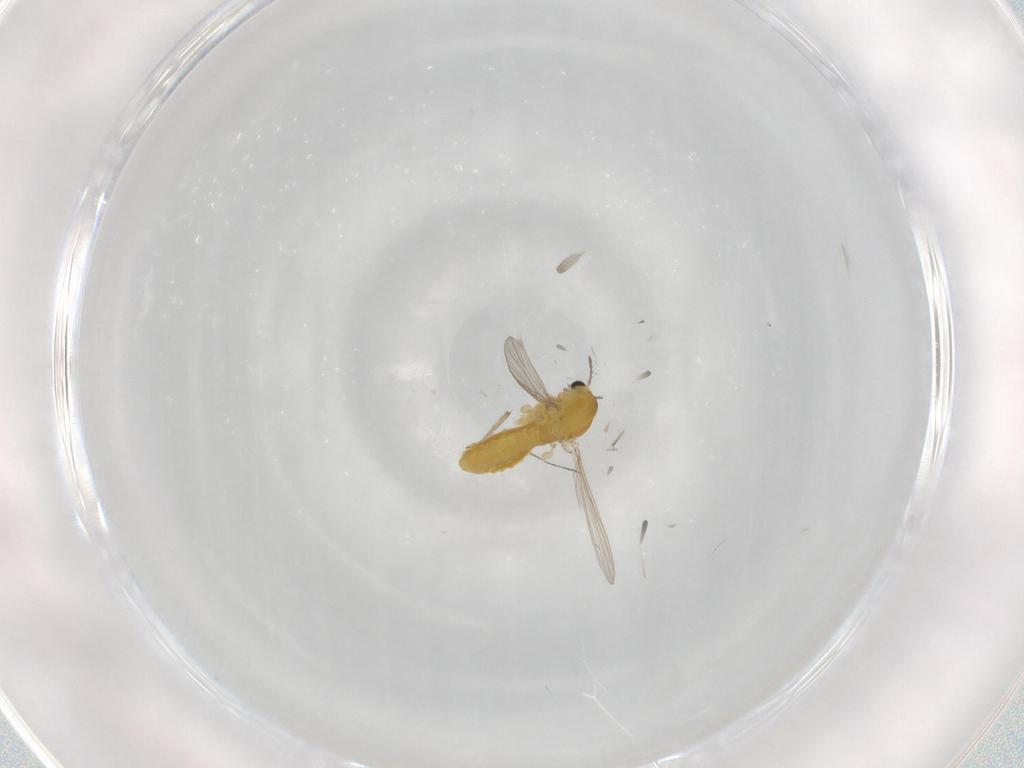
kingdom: Animalia
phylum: Arthropoda
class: Insecta
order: Diptera
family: Chironomidae
